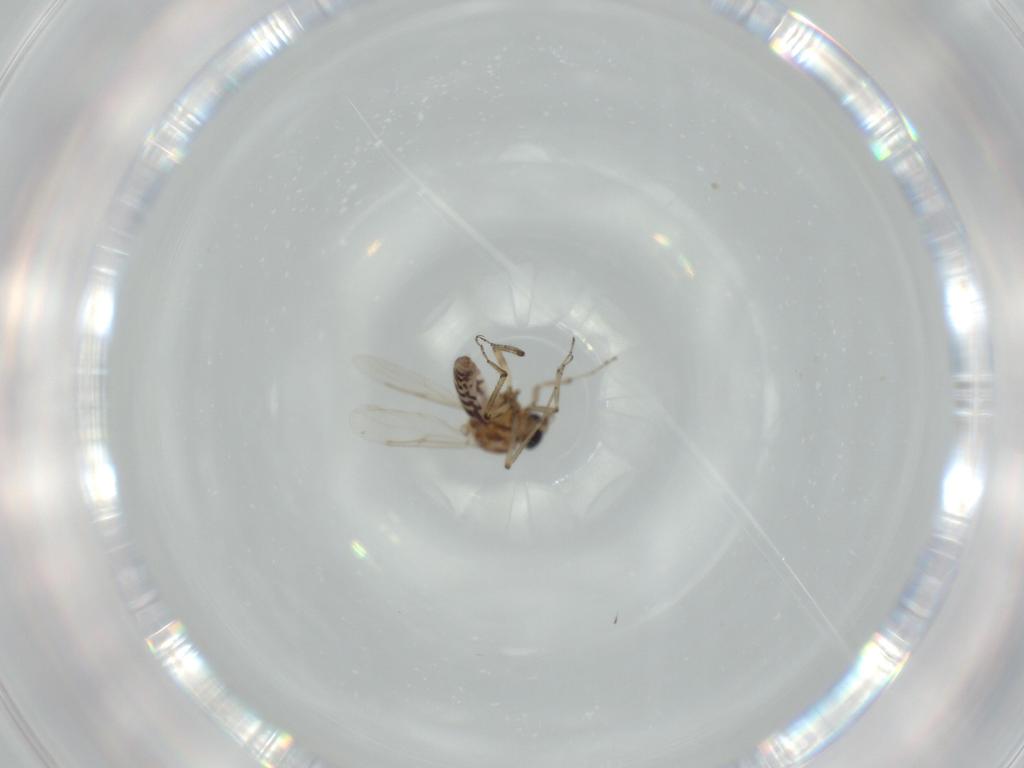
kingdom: Animalia
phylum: Arthropoda
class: Insecta
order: Diptera
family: Ceratopogonidae
